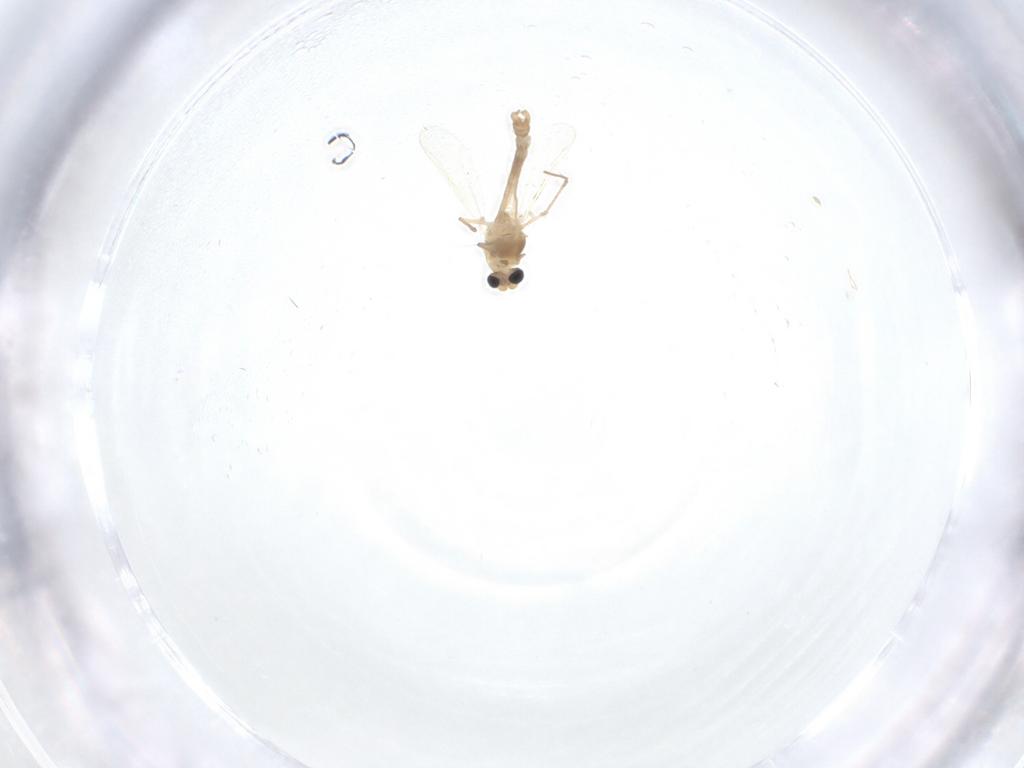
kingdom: Animalia
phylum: Arthropoda
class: Insecta
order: Diptera
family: Chironomidae
